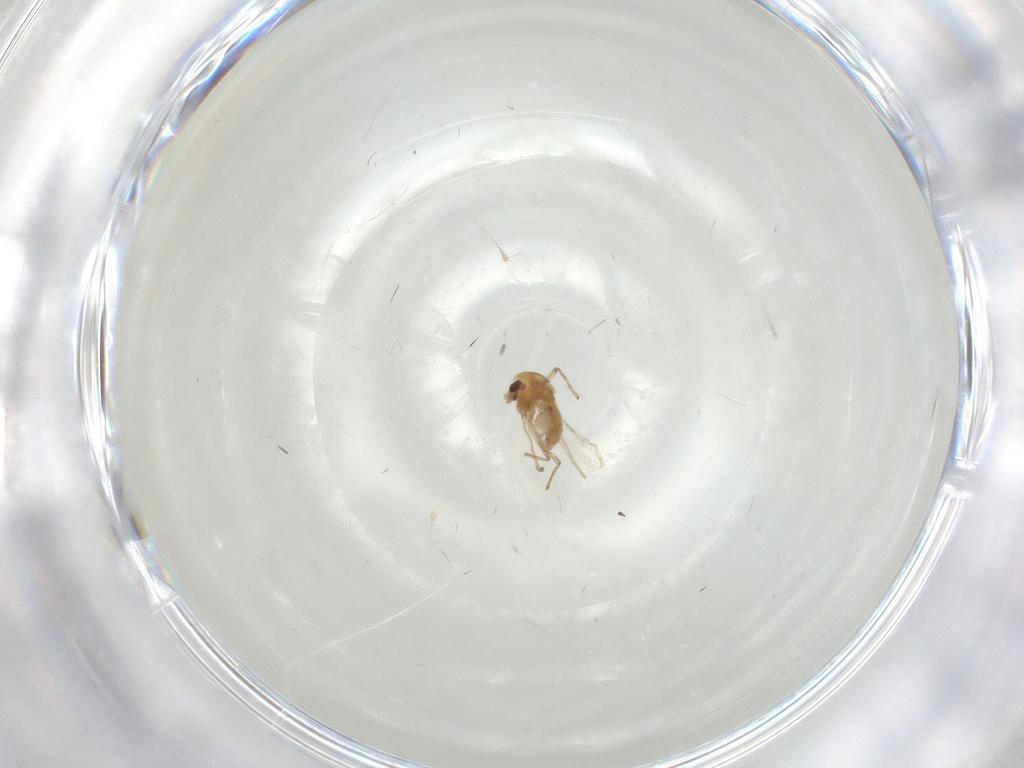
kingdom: Animalia
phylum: Arthropoda
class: Insecta
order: Diptera
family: Chironomidae
